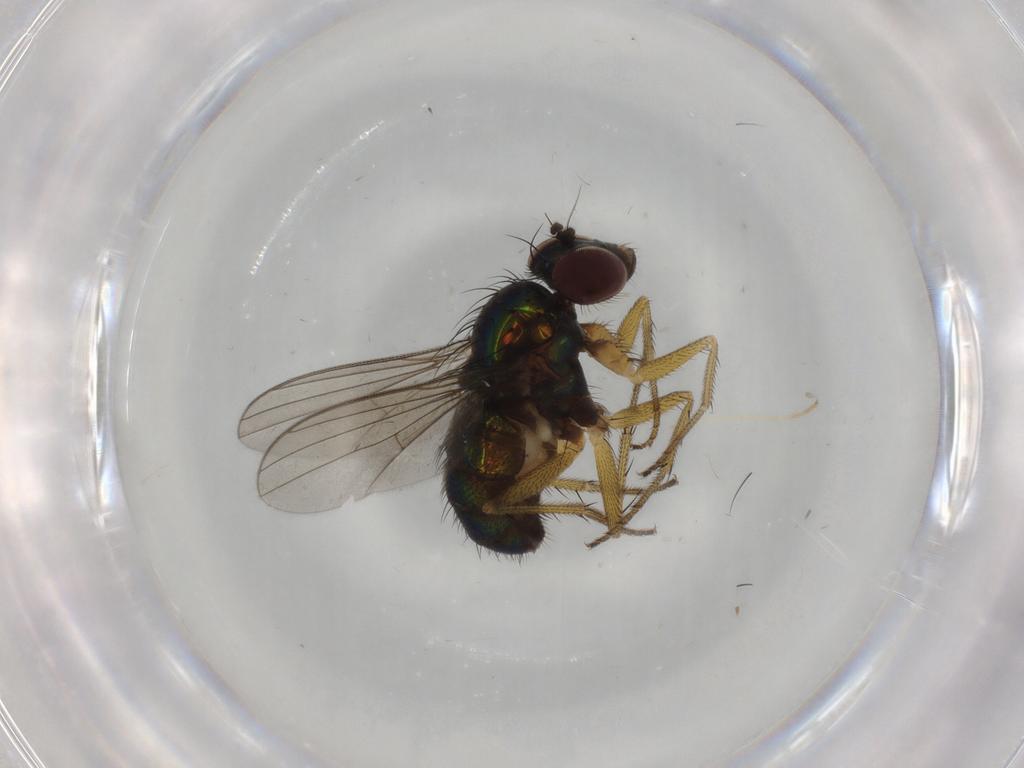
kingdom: Animalia
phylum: Arthropoda
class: Insecta
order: Diptera
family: Dolichopodidae
